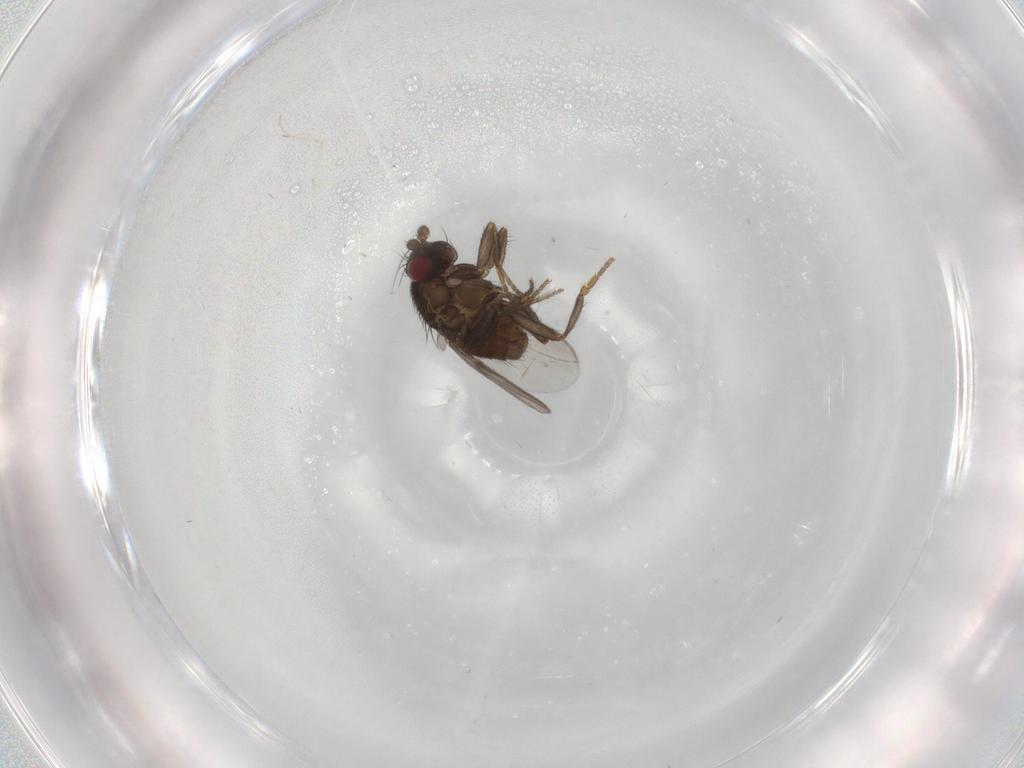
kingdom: Animalia
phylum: Arthropoda
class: Insecta
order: Diptera
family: Sphaeroceridae
